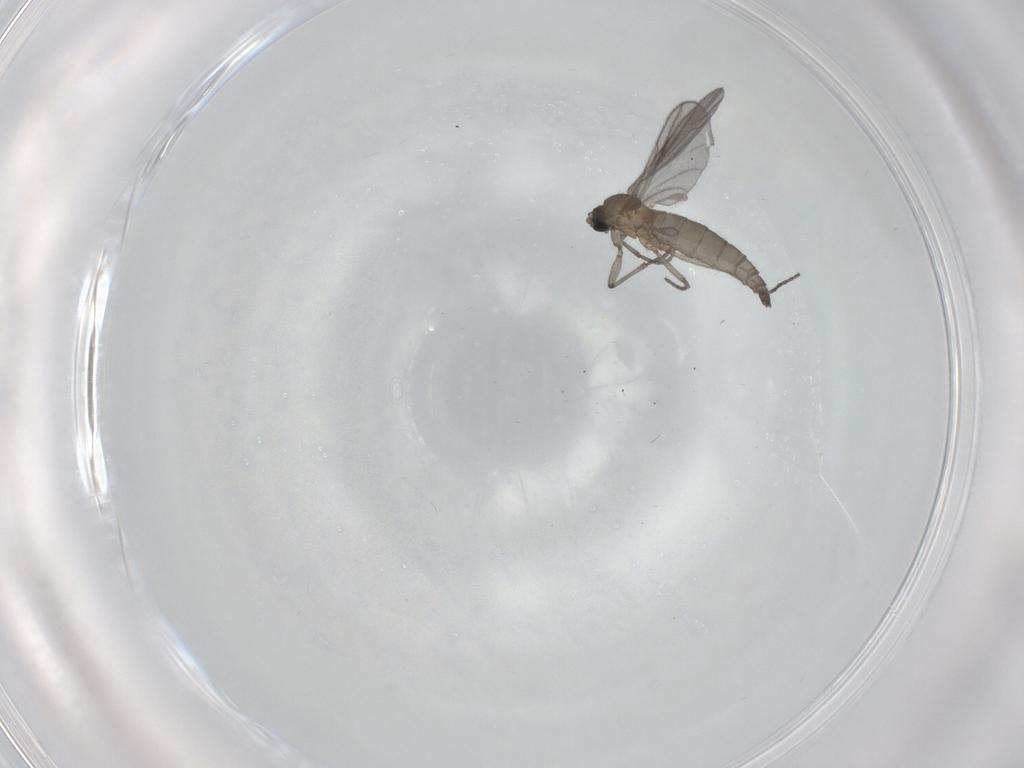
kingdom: Animalia
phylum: Arthropoda
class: Insecta
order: Diptera
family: Sciaridae
